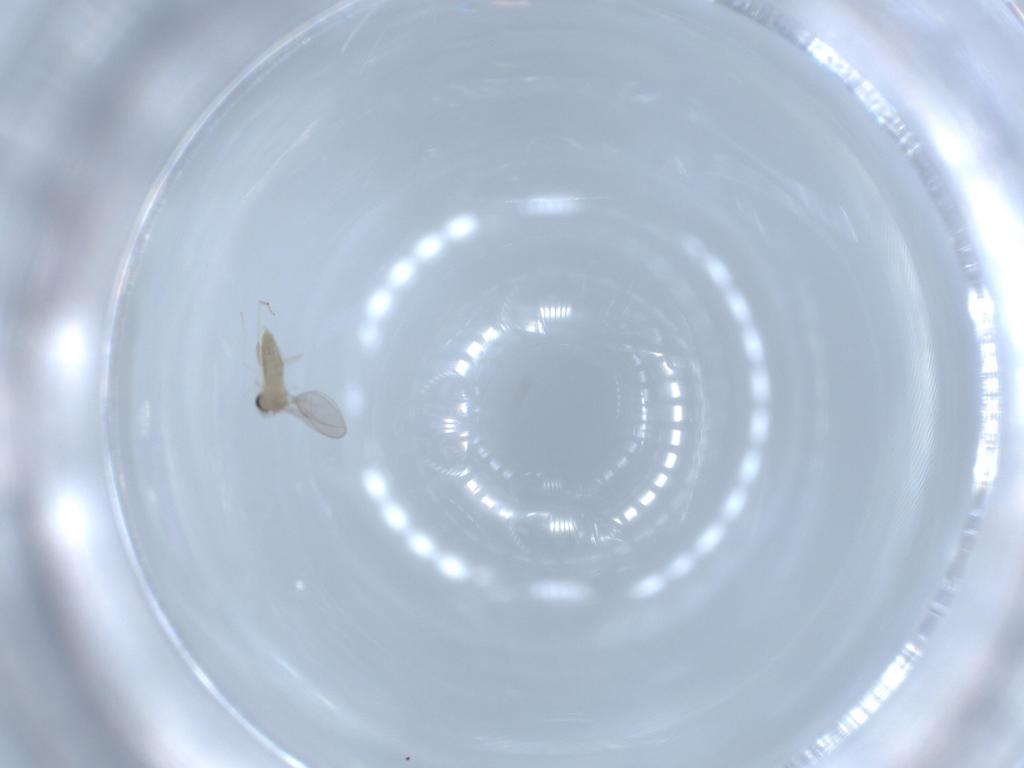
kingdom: Animalia
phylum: Arthropoda
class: Insecta
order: Diptera
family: Cecidomyiidae
